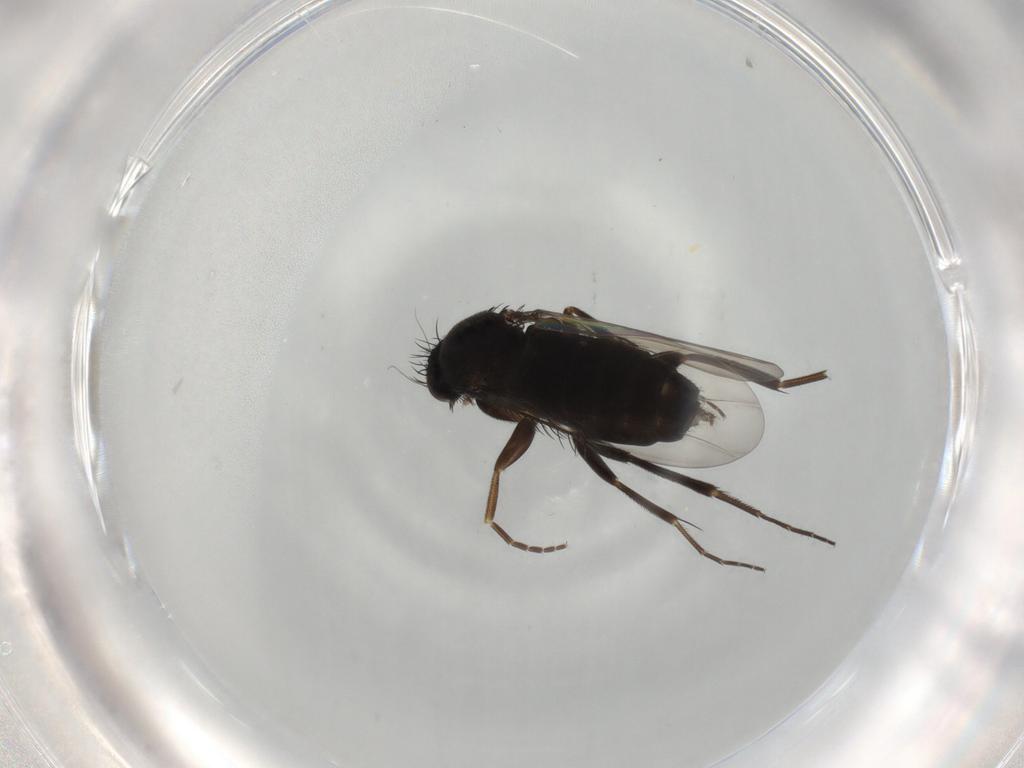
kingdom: Animalia
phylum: Arthropoda
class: Insecta
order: Diptera
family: Phoridae
